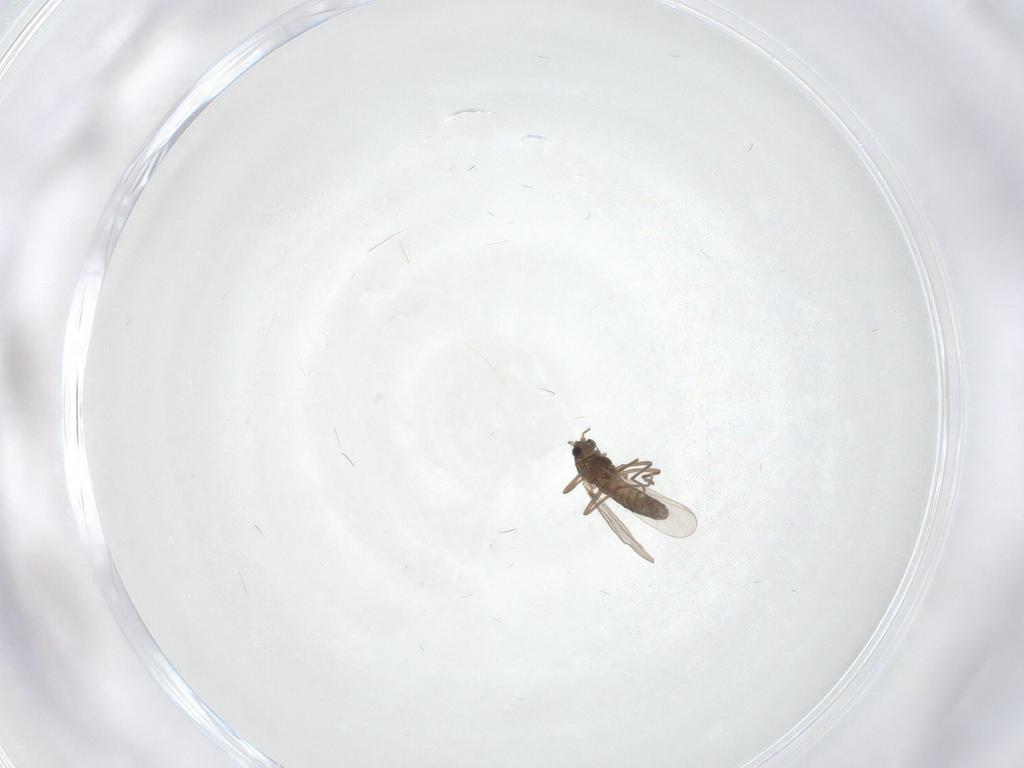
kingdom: Animalia
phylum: Arthropoda
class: Insecta
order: Diptera
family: Chironomidae
